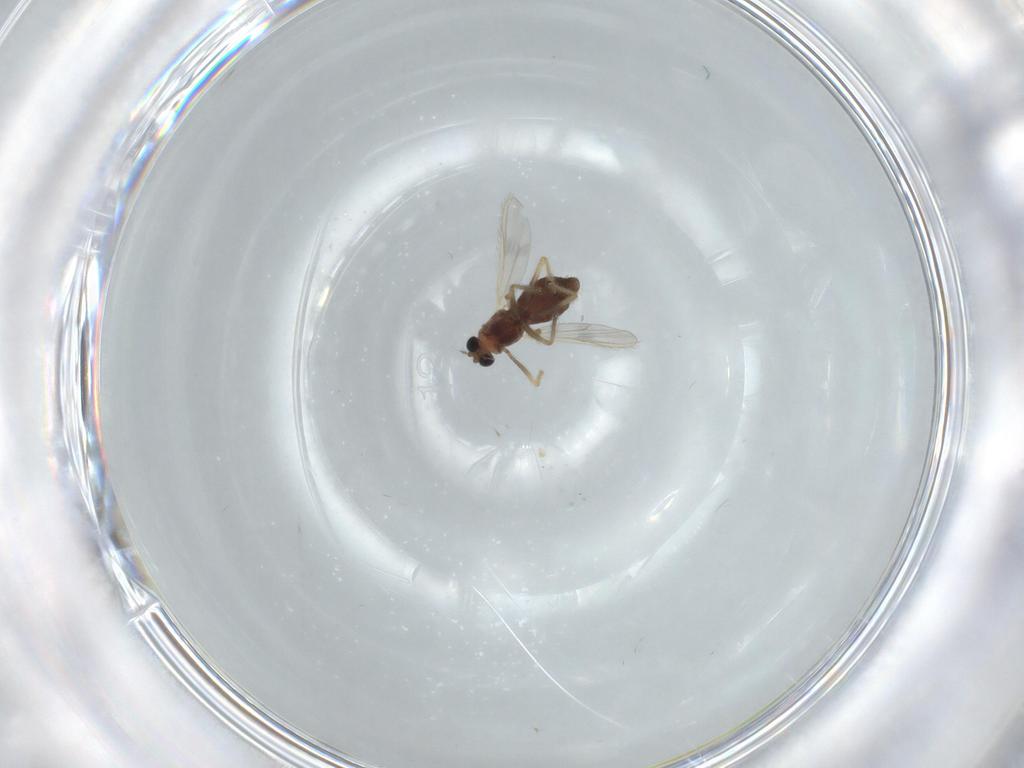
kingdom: Animalia
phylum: Arthropoda
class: Insecta
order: Diptera
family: Chironomidae
